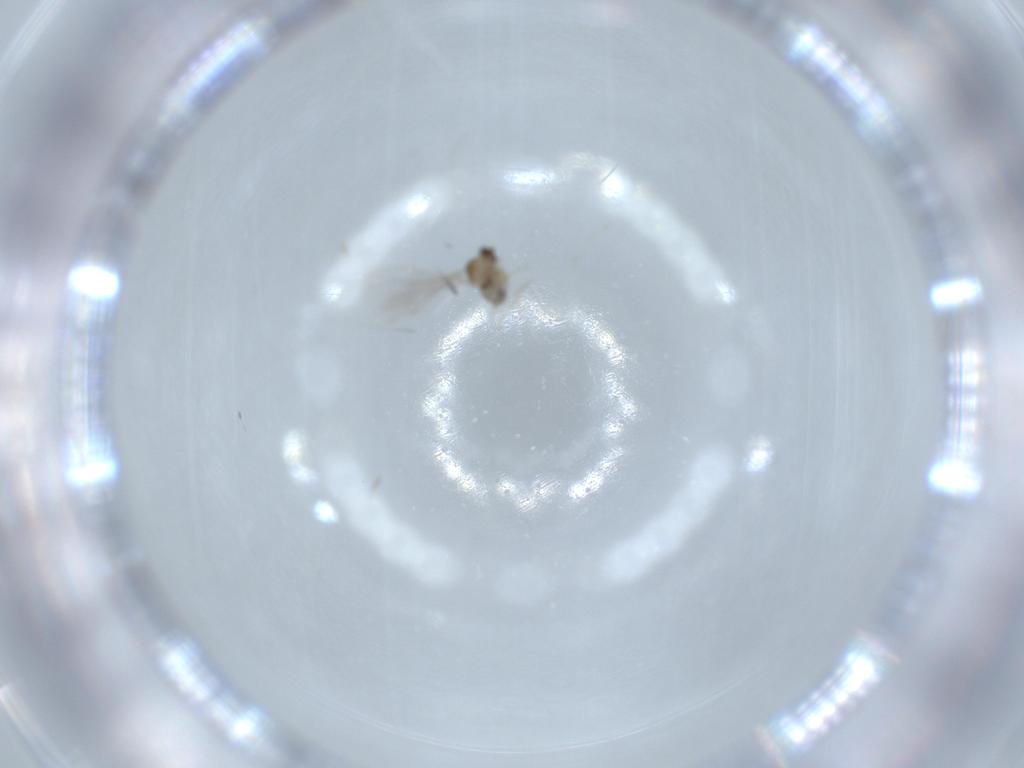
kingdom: Animalia
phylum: Arthropoda
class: Insecta
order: Diptera
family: Cecidomyiidae
